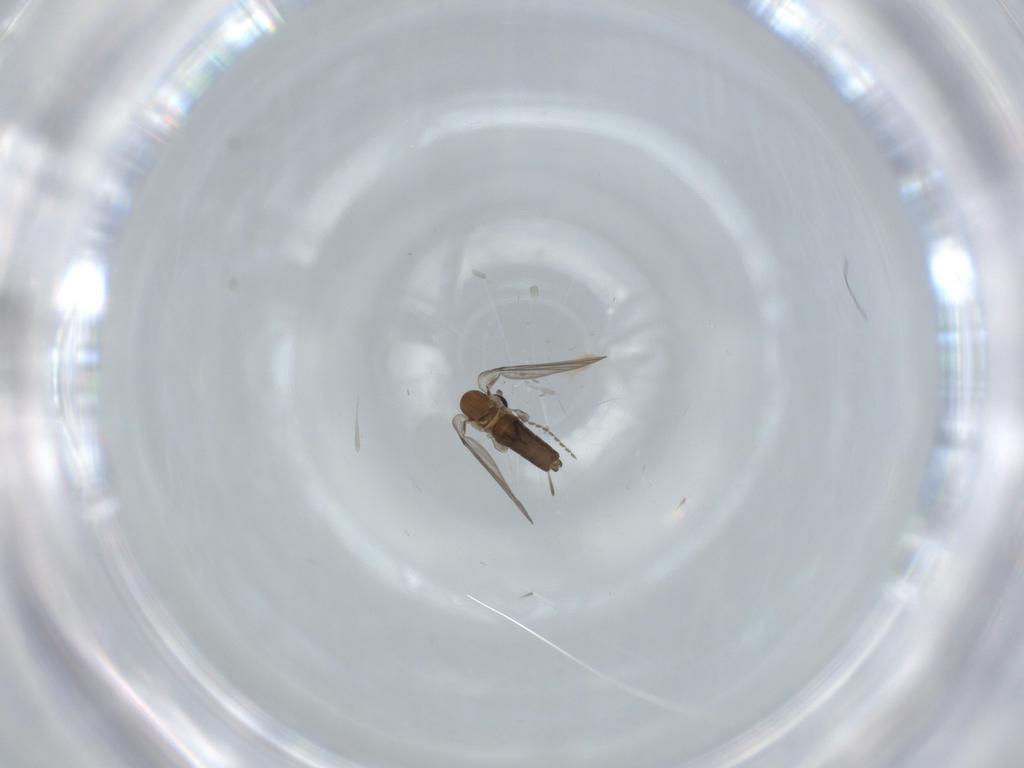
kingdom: Animalia
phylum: Arthropoda
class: Insecta
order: Diptera
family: Psychodidae
